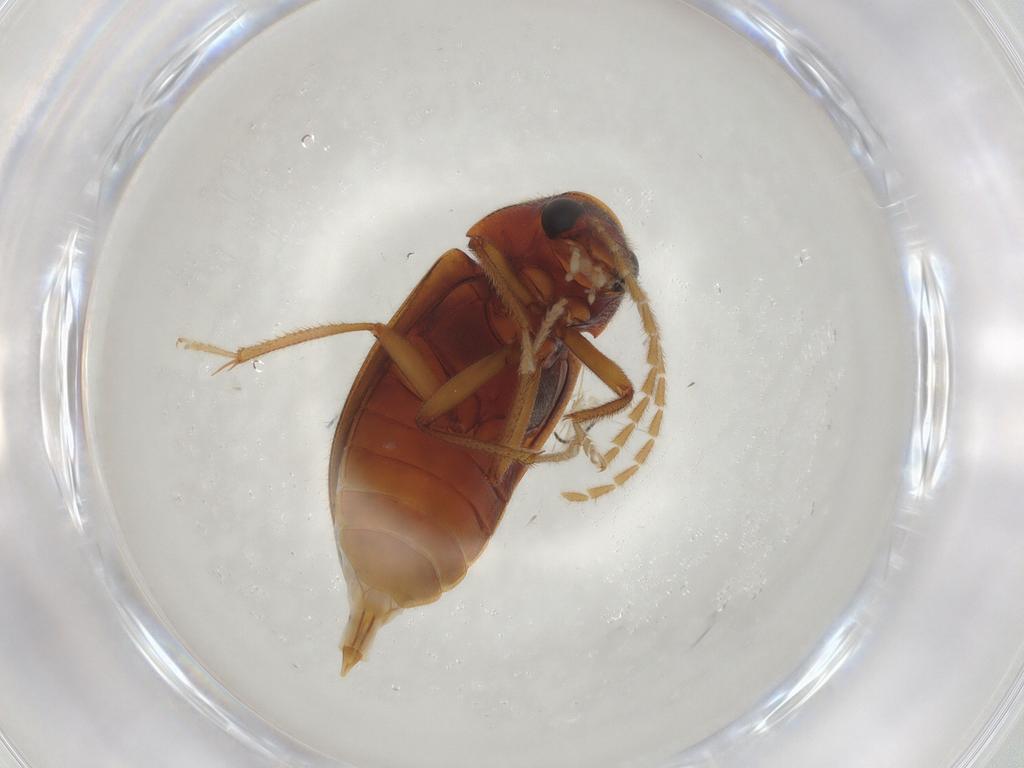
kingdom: Animalia
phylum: Arthropoda
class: Insecta
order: Coleoptera
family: Ptilodactylidae
